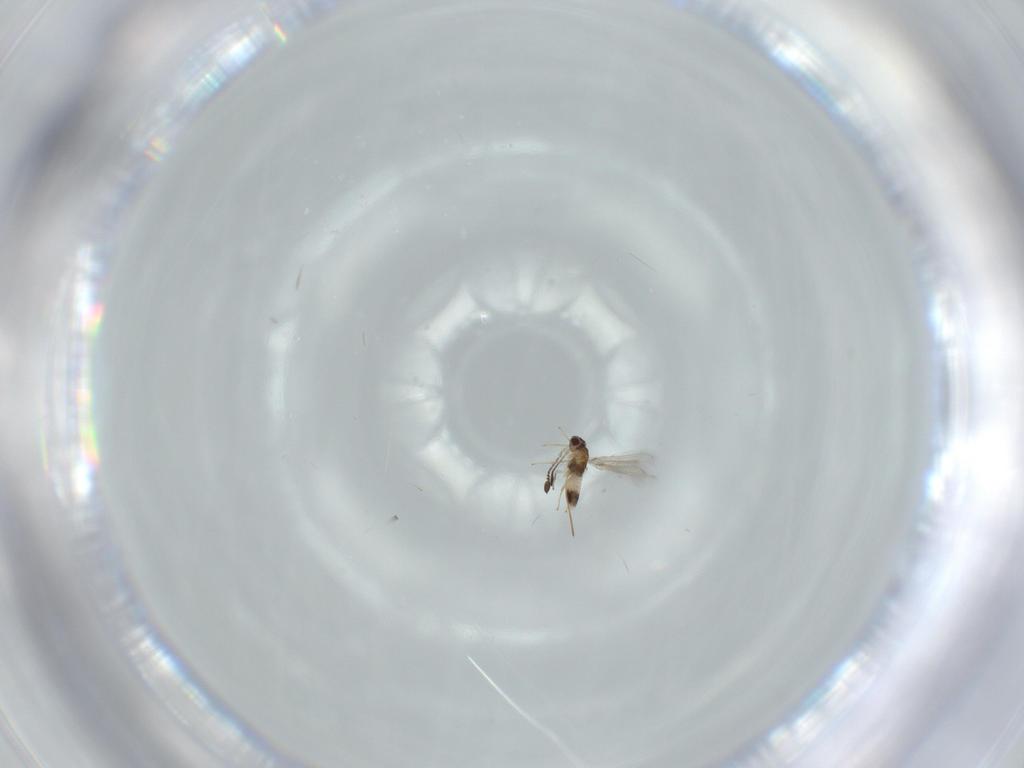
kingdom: Animalia
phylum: Arthropoda
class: Insecta
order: Hymenoptera
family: Mymaridae
